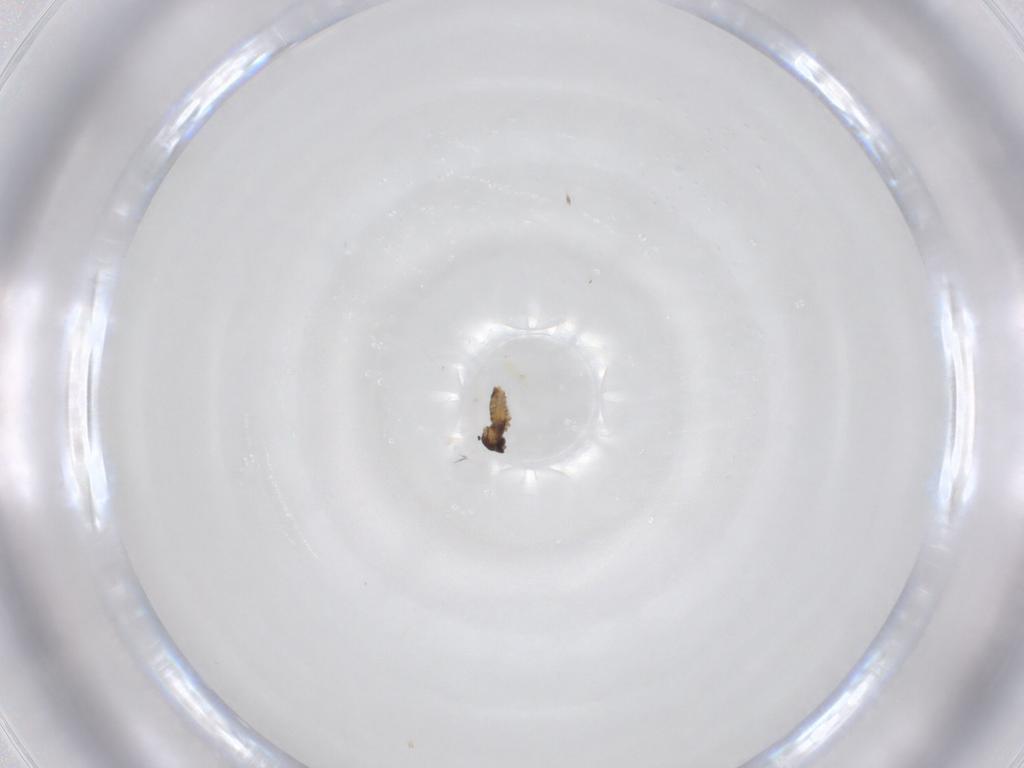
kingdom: Animalia
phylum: Arthropoda
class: Insecta
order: Diptera
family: Cecidomyiidae
